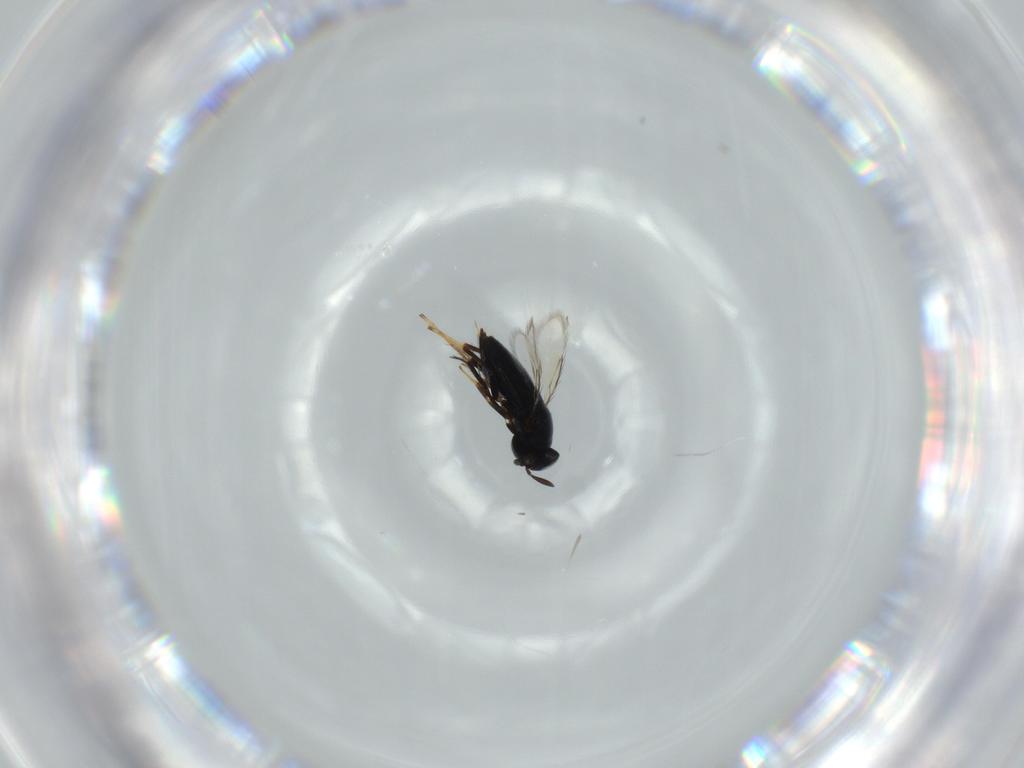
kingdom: Animalia
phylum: Arthropoda
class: Insecta
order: Hymenoptera
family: Signiphoridae
